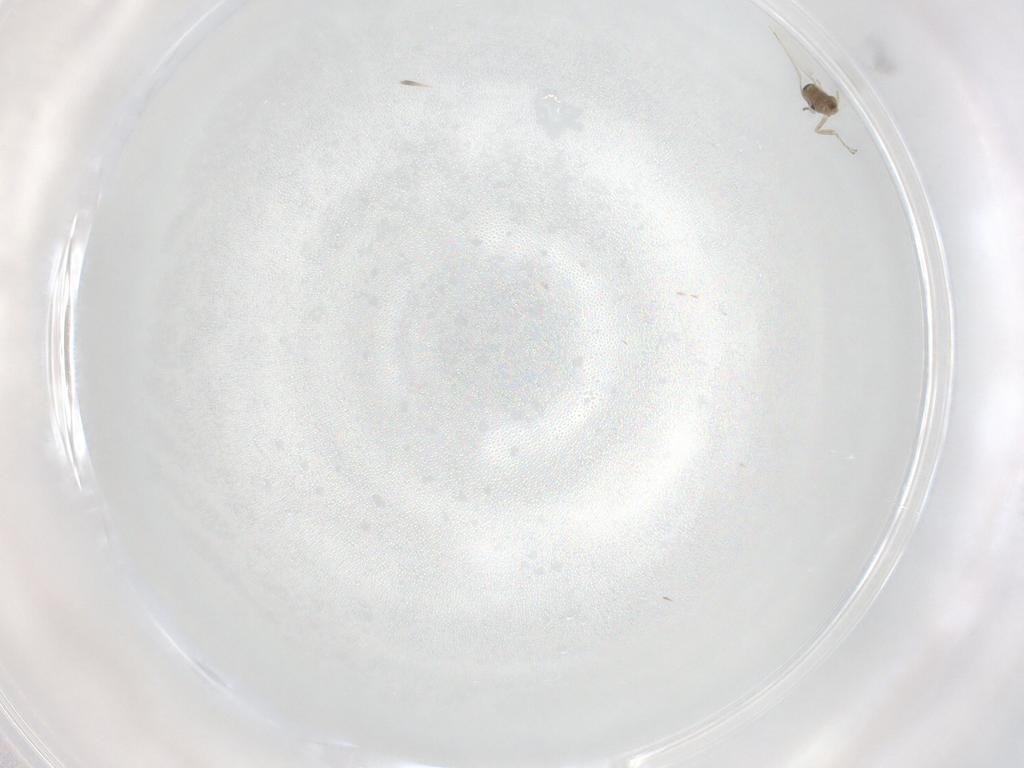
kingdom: Animalia
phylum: Arthropoda
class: Insecta
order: Diptera
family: Cecidomyiidae
